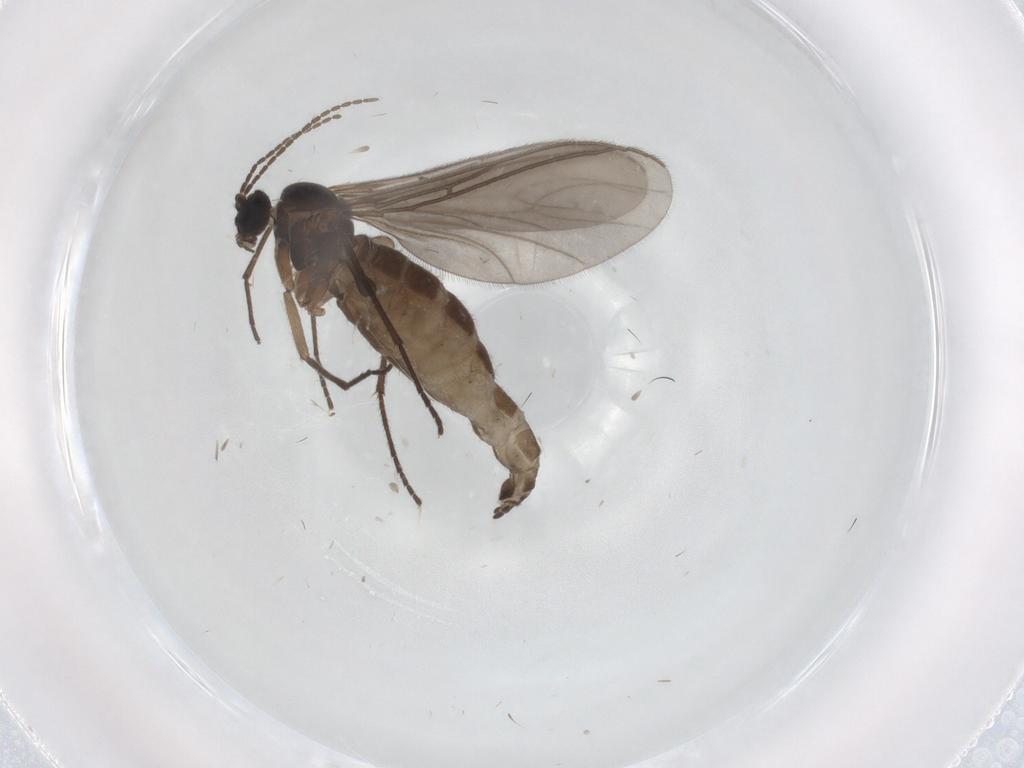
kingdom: Animalia
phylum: Arthropoda
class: Insecta
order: Diptera
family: Sciaridae
